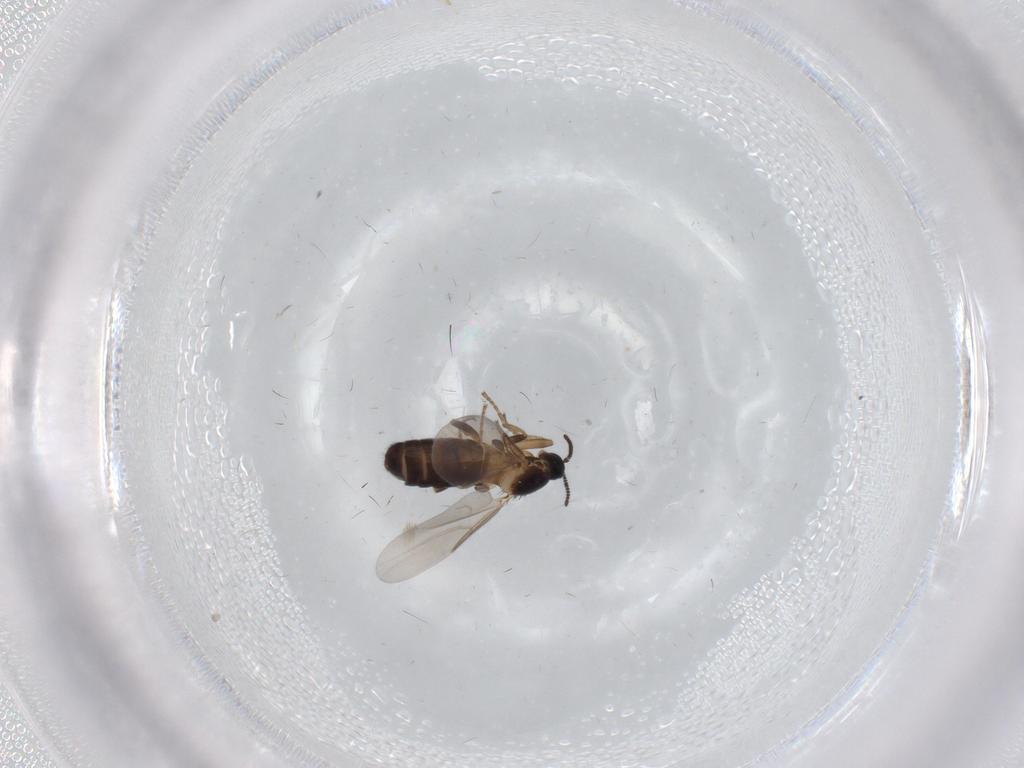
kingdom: Animalia
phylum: Arthropoda
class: Insecta
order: Diptera
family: Scatopsidae
